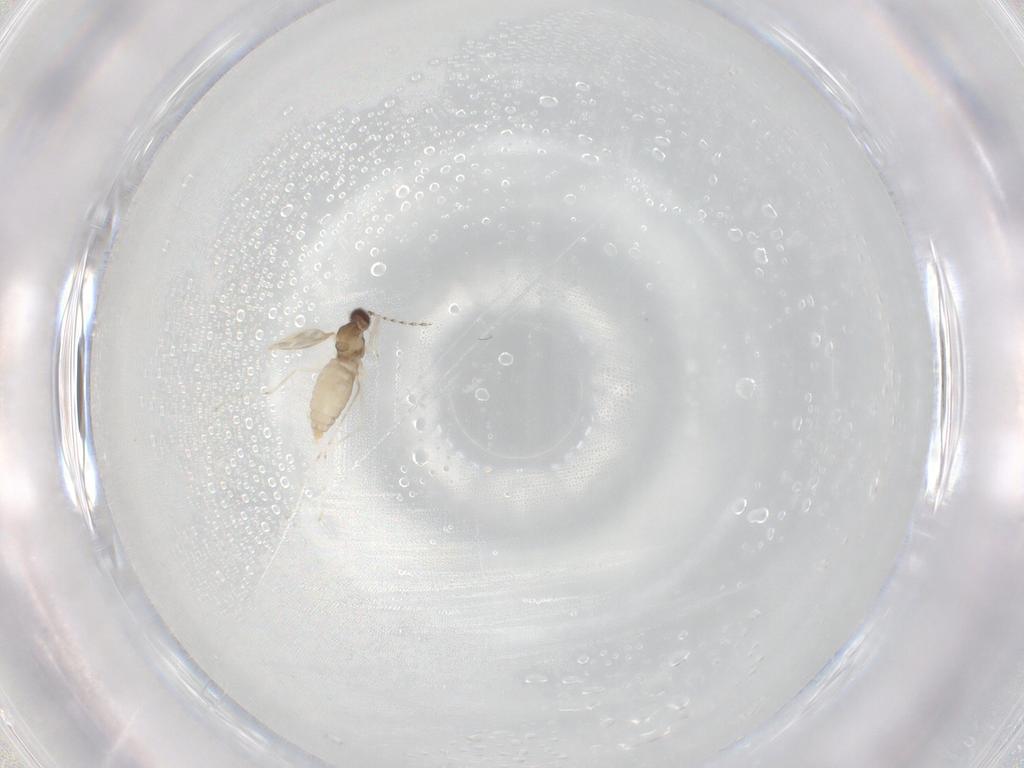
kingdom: Animalia
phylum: Arthropoda
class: Insecta
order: Diptera
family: Cecidomyiidae
